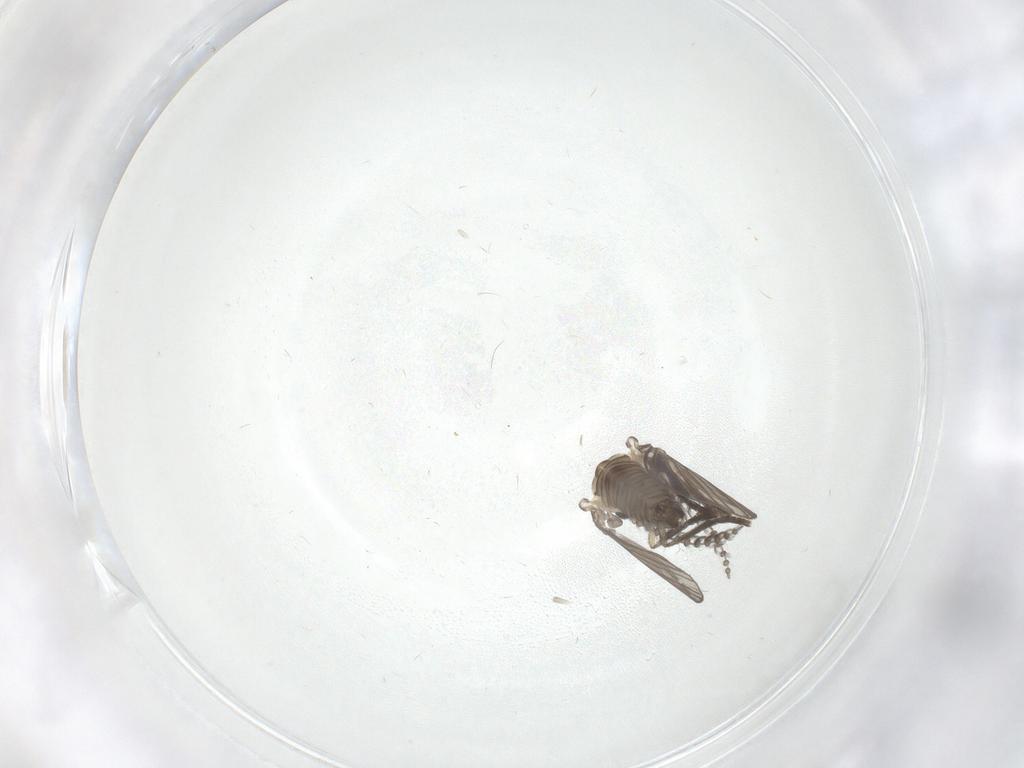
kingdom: Animalia
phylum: Arthropoda
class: Insecta
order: Diptera
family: Psychodidae
